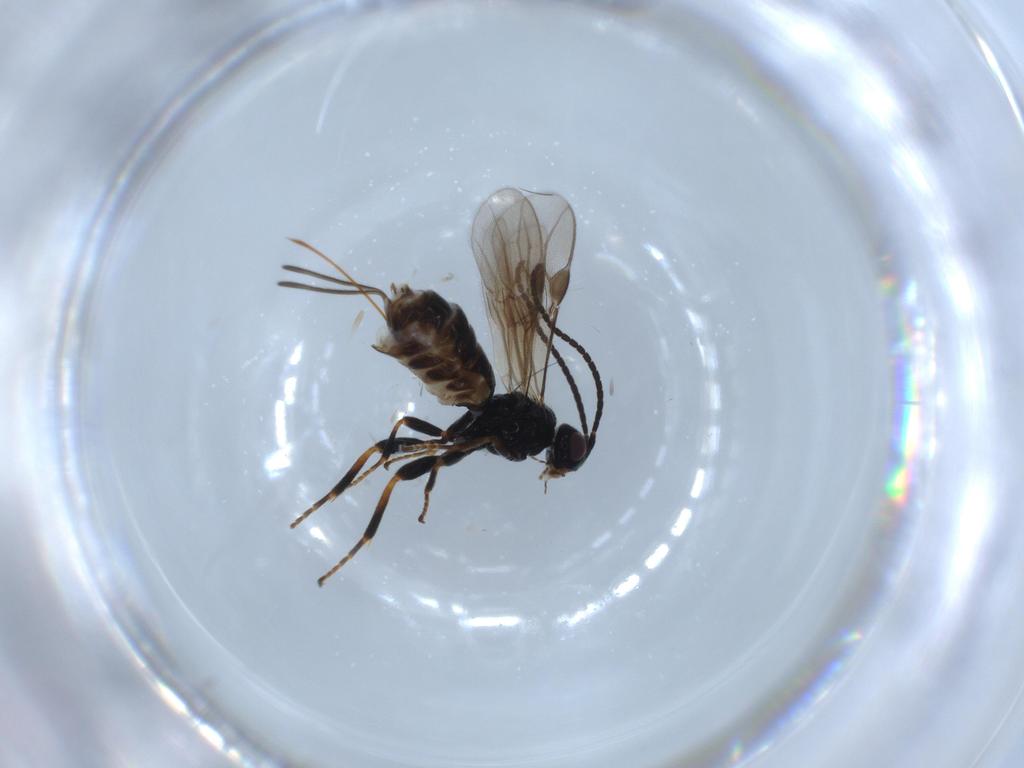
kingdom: Animalia
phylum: Arthropoda
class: Insecta
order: Hymenoptera
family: Braconidae
